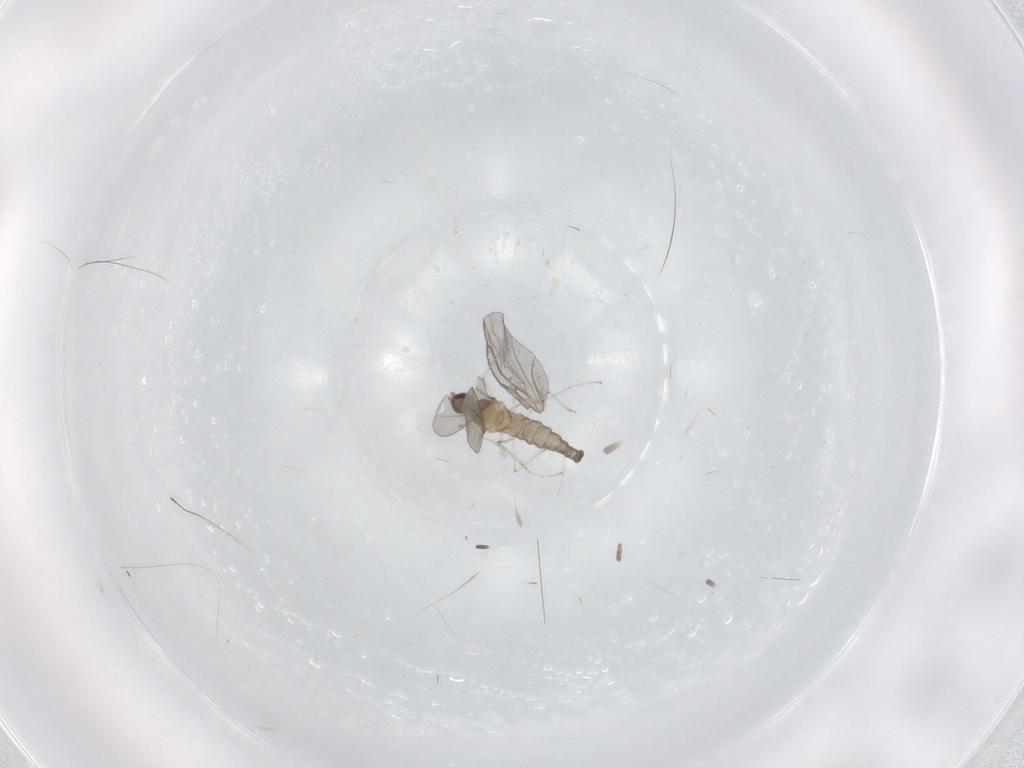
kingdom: Animalia
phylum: Arthropoda
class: Insecta
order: Diptera
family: Cecidomyiidae
